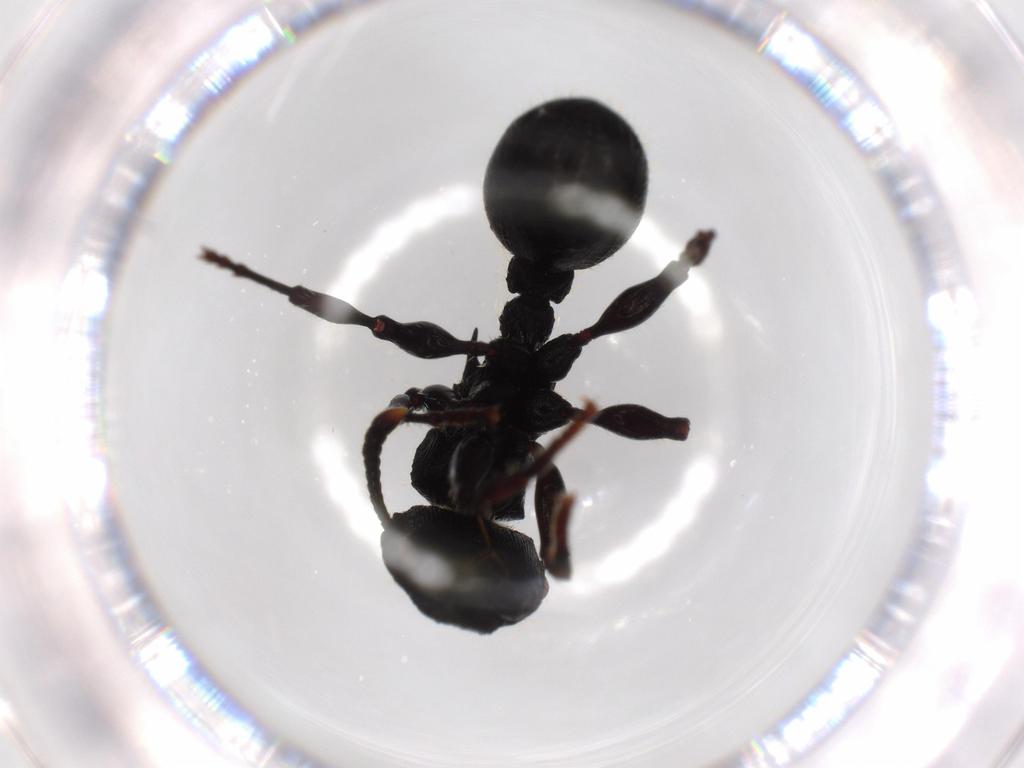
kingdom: Animalia
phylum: Arthropoda
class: Insecta
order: Hymenoptera
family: Formicidae
